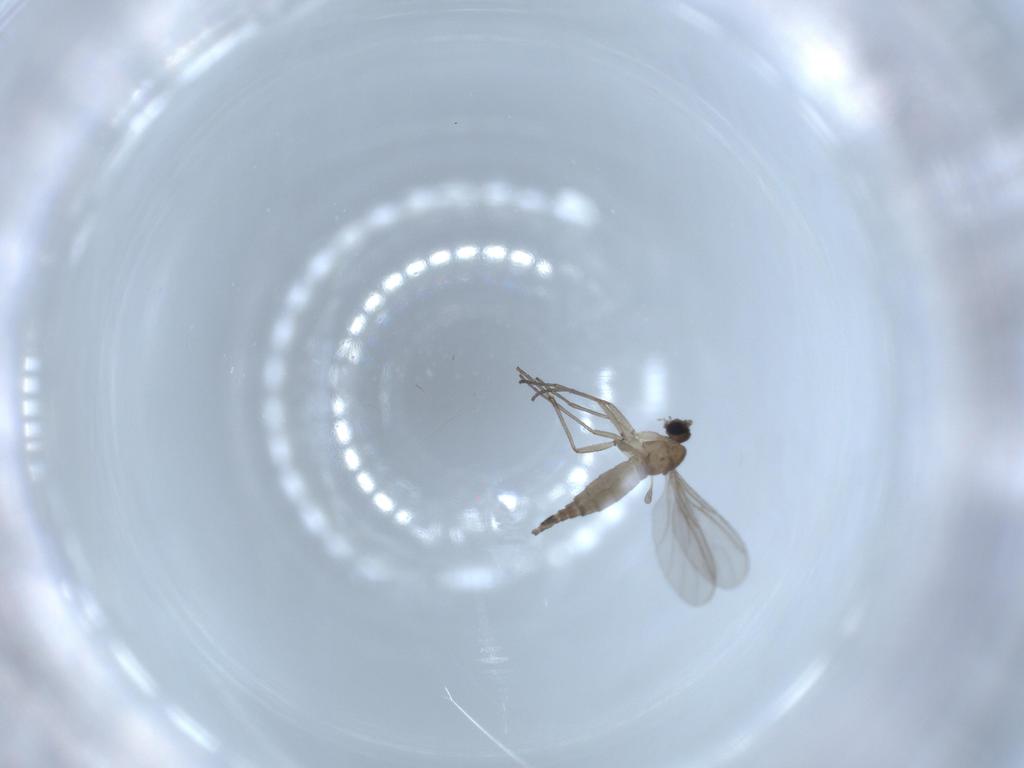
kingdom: Animalia
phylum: Arthropoda
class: Insecta
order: Diptera
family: Sciaridae
